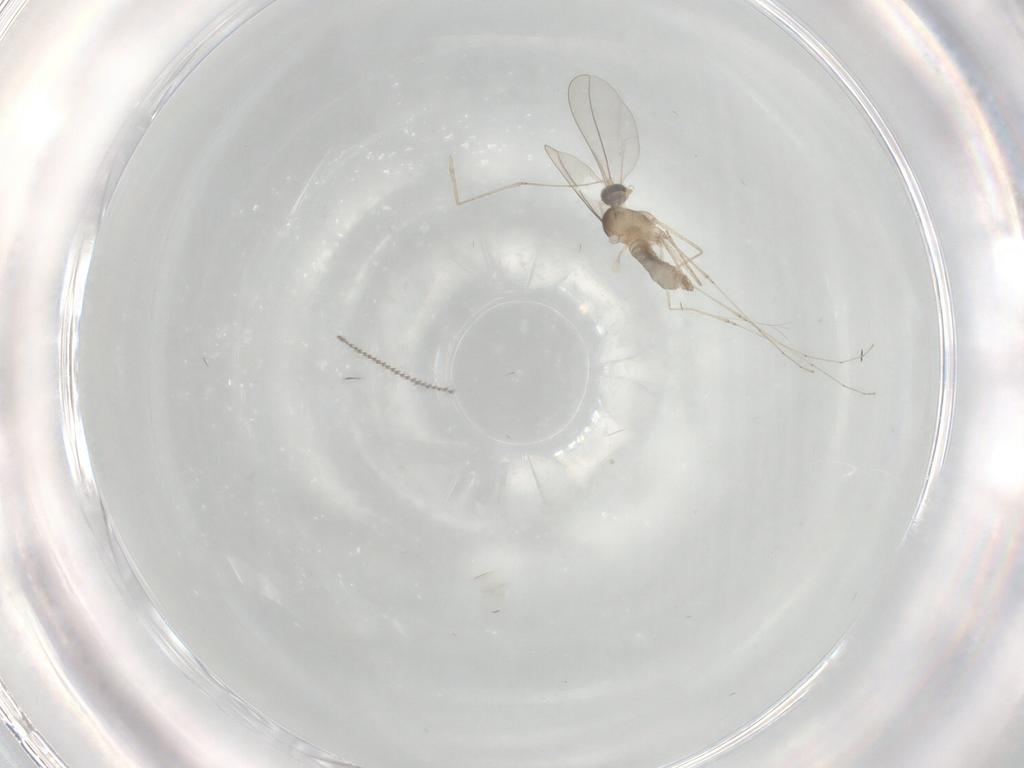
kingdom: Animalia
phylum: Arthropoda
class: Insecta
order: Diptera
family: Cecidomyiidae
